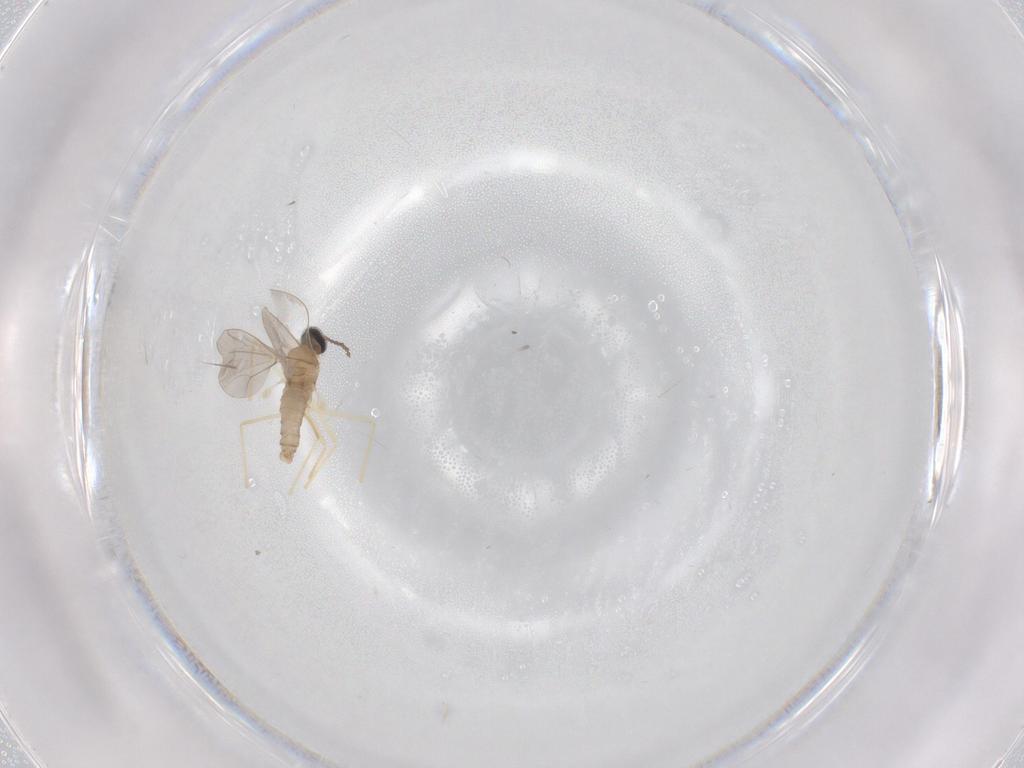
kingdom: Animalia
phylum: Arthropoda
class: Insecta
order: Diptera
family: Cecidomyiidae
